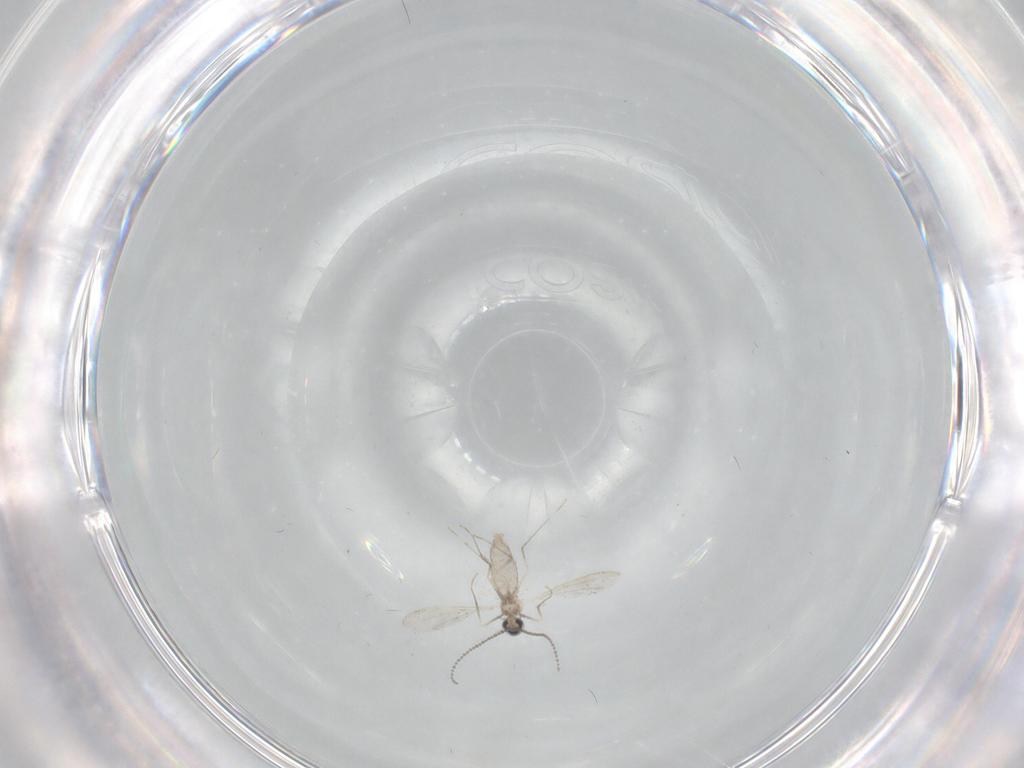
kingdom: Animalia
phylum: Arthropoda
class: Insecta
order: Diptera
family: Cecidomyiidae
